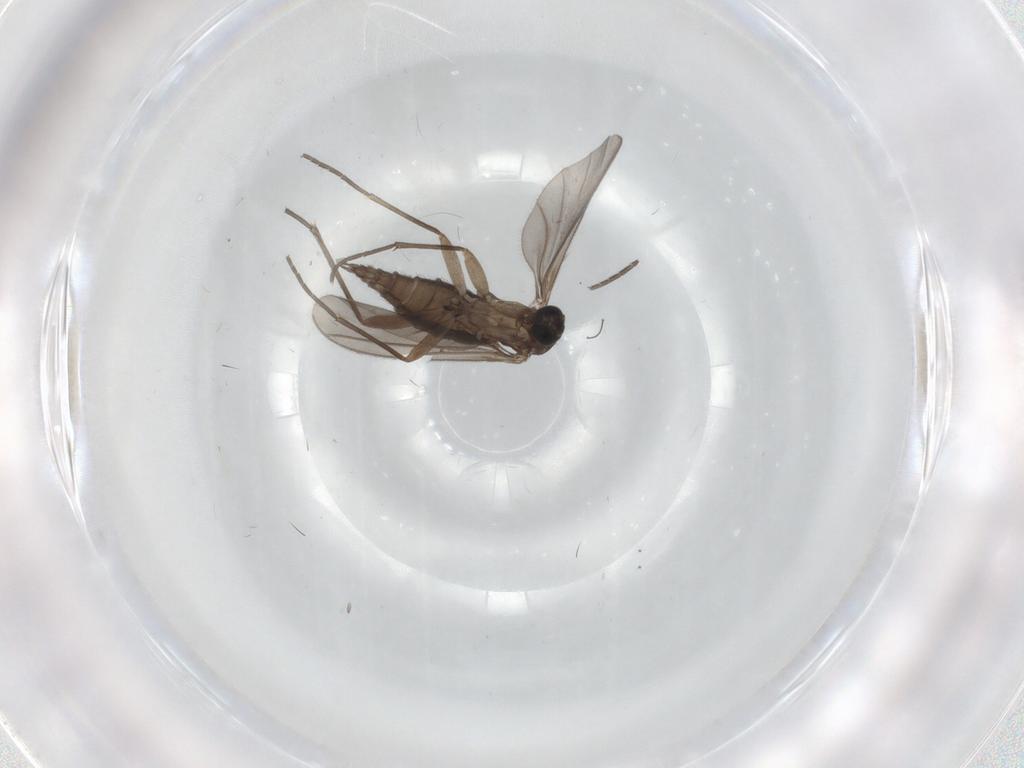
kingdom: Animalia
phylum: Arthropoda
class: Insecta
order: Diptera
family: Sciaridae
